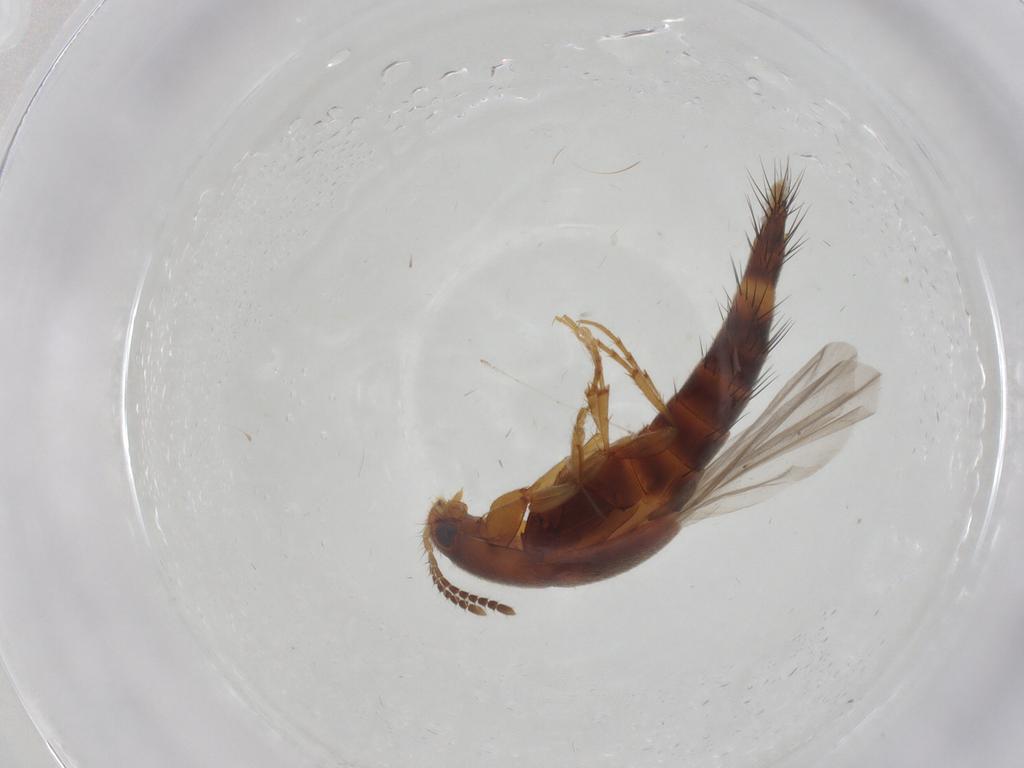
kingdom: Animalia
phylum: Arthropoda
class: Insecta
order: Coleoptera
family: Staphylinidae
